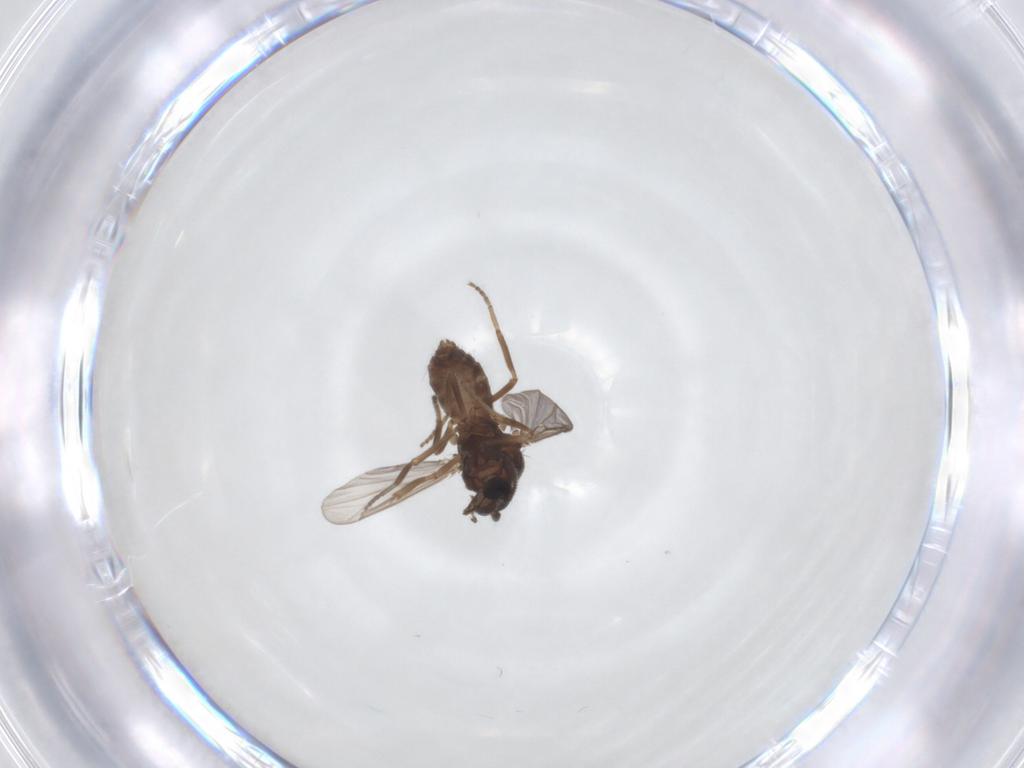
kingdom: Animalia
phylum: Arthropoda
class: Insecta
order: Diptera
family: Ceratopogonidae
